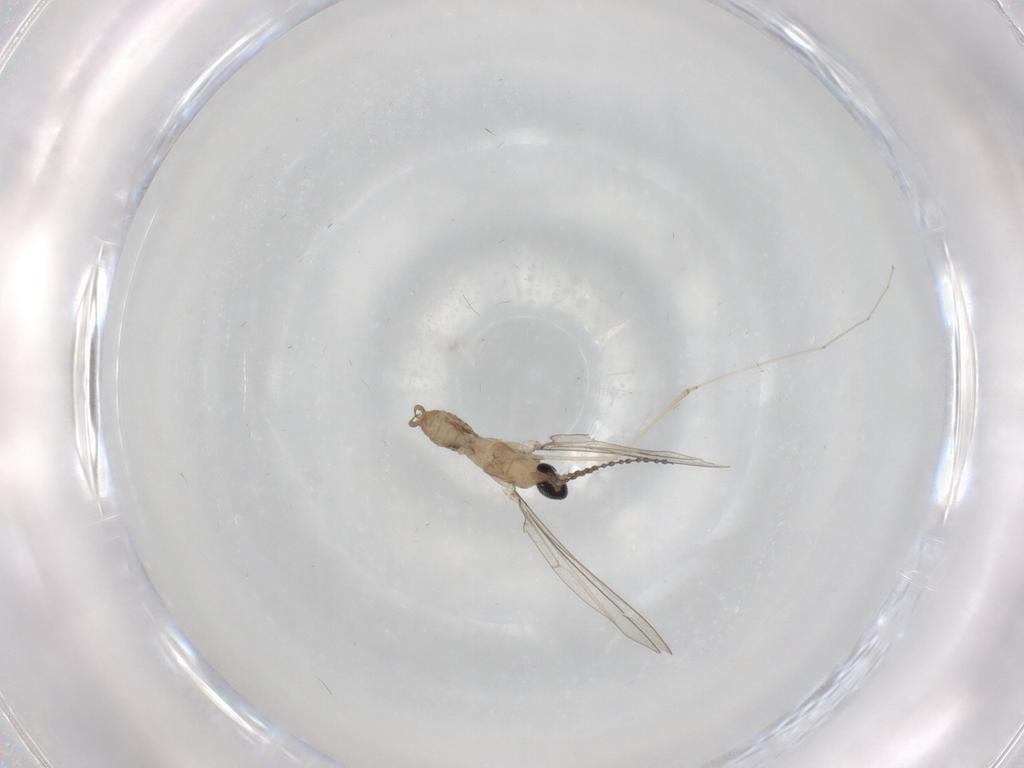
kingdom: Animalia
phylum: Arthropoda
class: Insecta
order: Diptera
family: Cecidomyiidae
